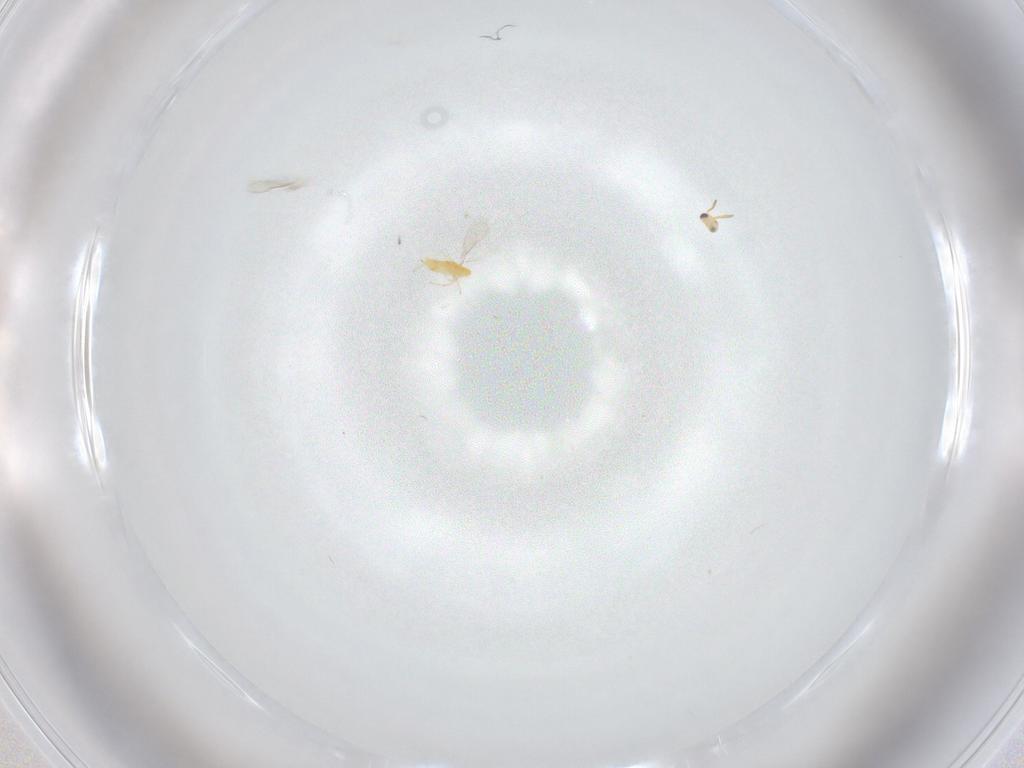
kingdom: Animalia
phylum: Arthropoda
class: Insecta
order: Hymenoptera
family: Aphelinidae
